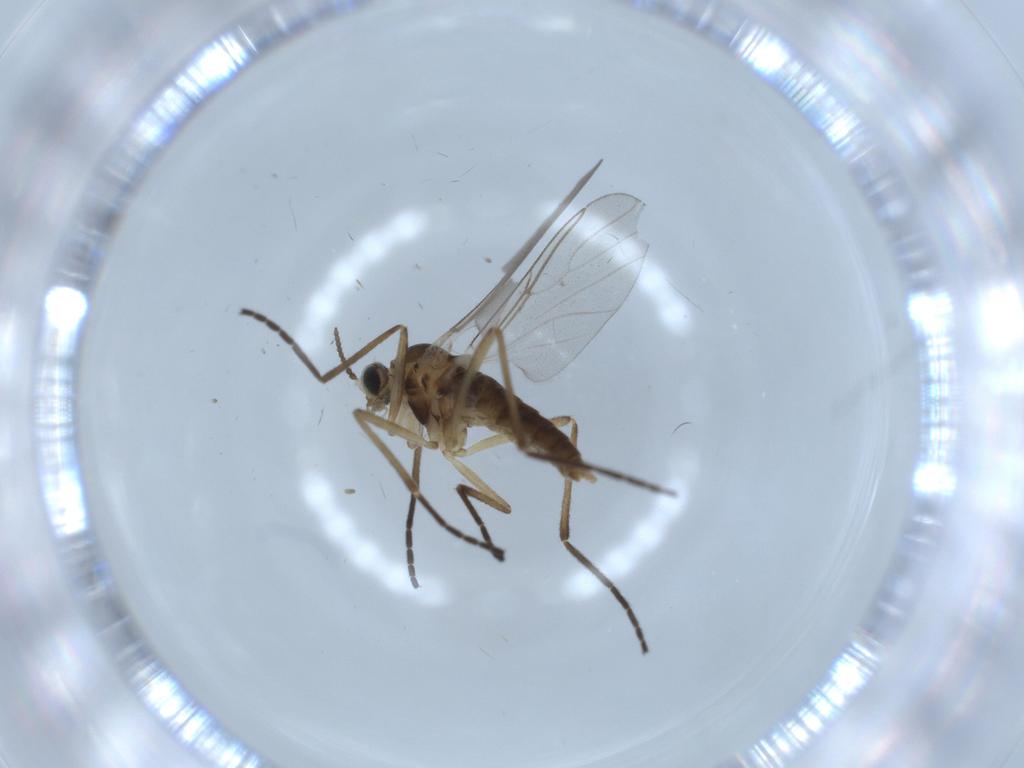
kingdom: Animalia
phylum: Arthropoda
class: Insecta
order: Diptera
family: Cecidomyiidae
